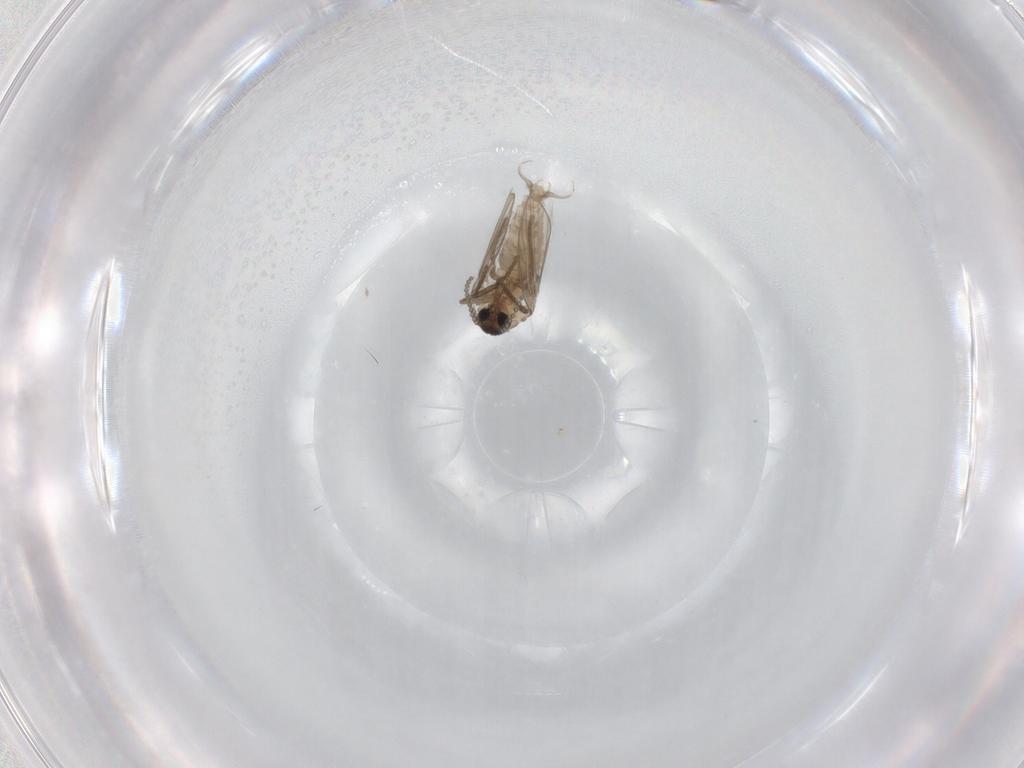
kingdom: Animalia
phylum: Arthropoda
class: Insecta
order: Diptera
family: Psychodidae
